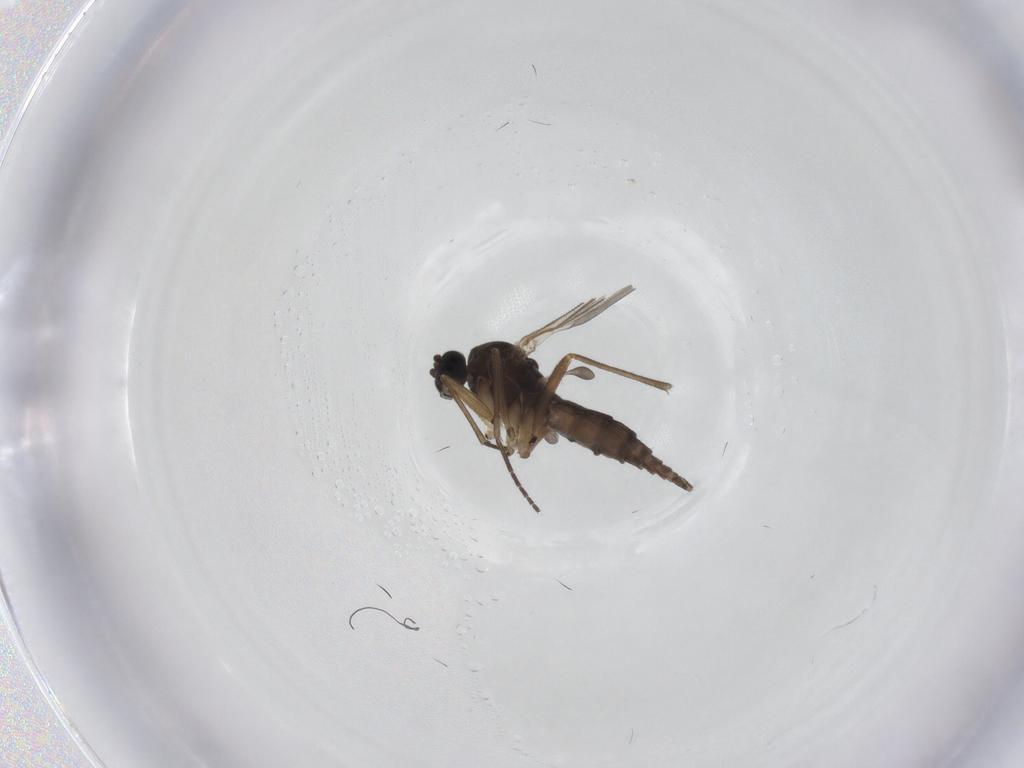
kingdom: Animalia
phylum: Arthropoda
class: Insecta
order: Diptera
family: Sciaridae
